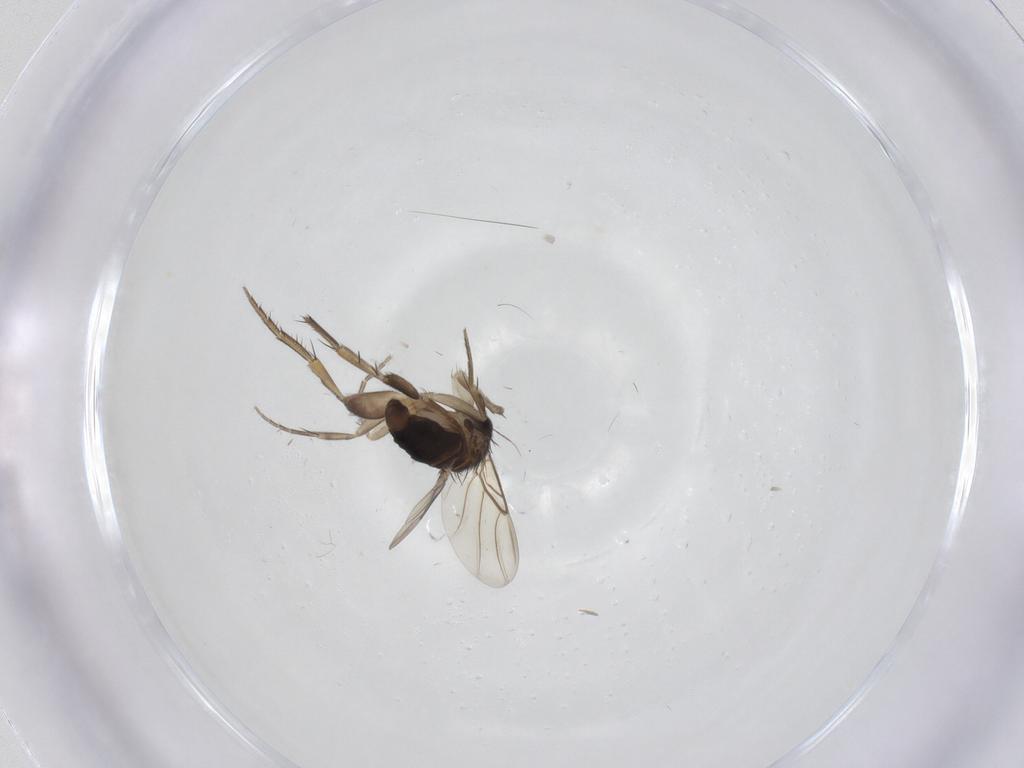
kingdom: Animalia
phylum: Arthropoda
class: Insecta
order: Diptera
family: Phoridae
